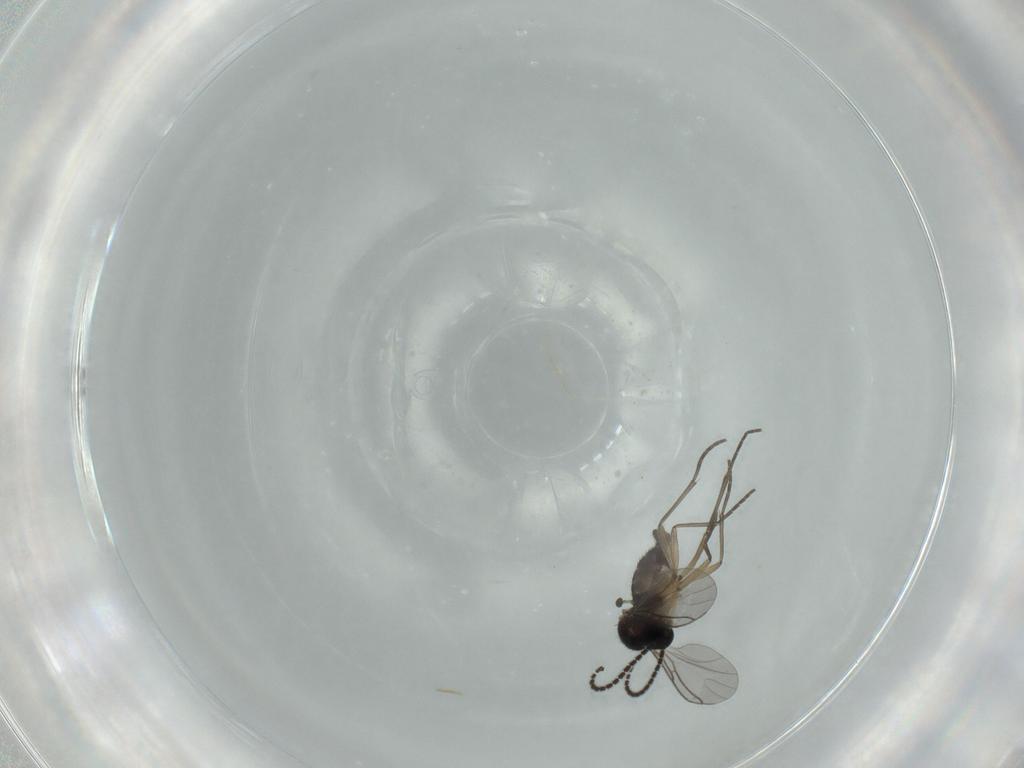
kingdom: Animalia
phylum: Arthropoda
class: Insecta
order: Diptera
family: Sciaridae
